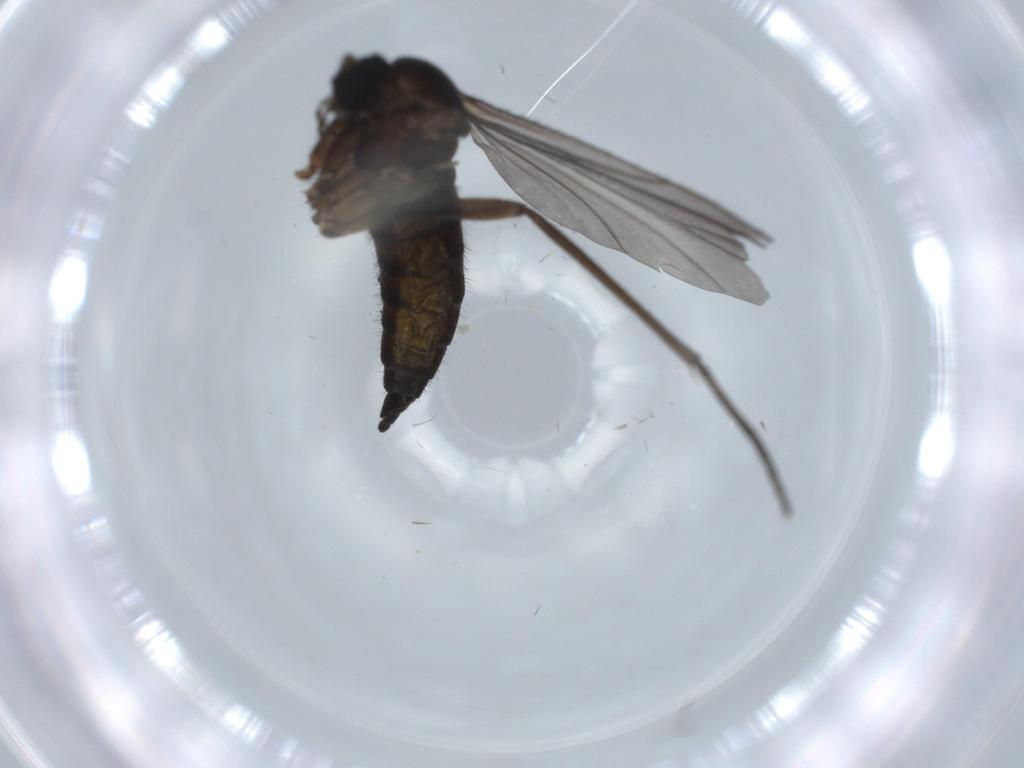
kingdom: Animalia
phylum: Arthropoda
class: Insecta
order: Diptera
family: Sciaridae
